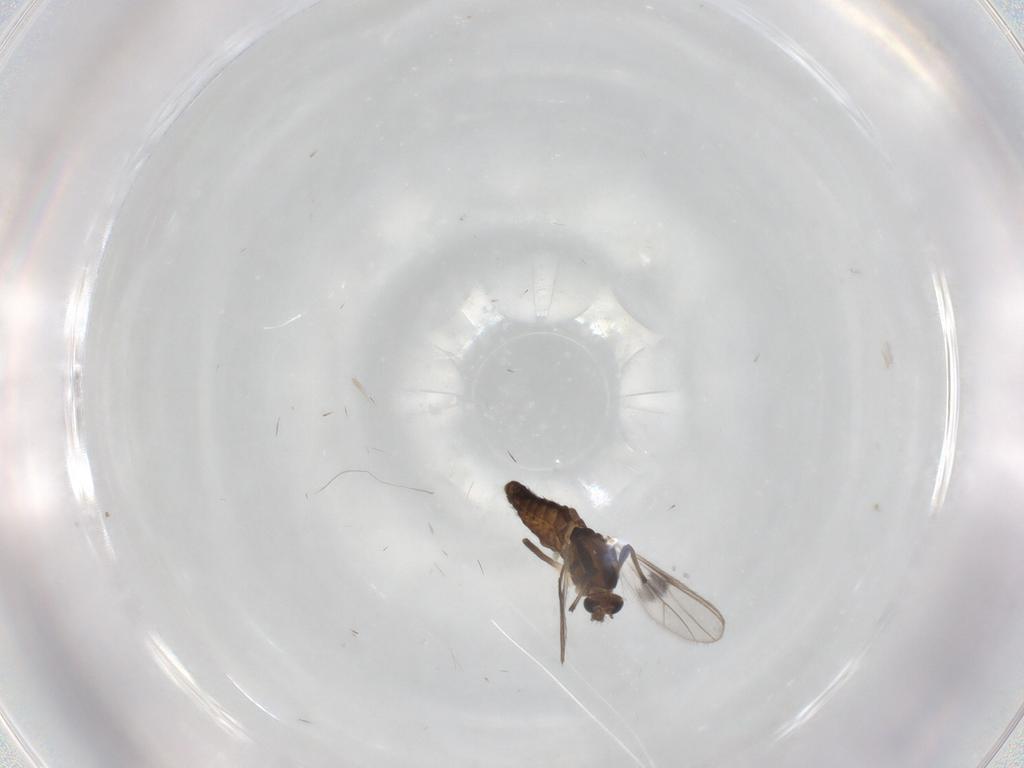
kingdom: Animalia
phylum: Arthropoda
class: Insecta
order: Diptera
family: Chironomidae
